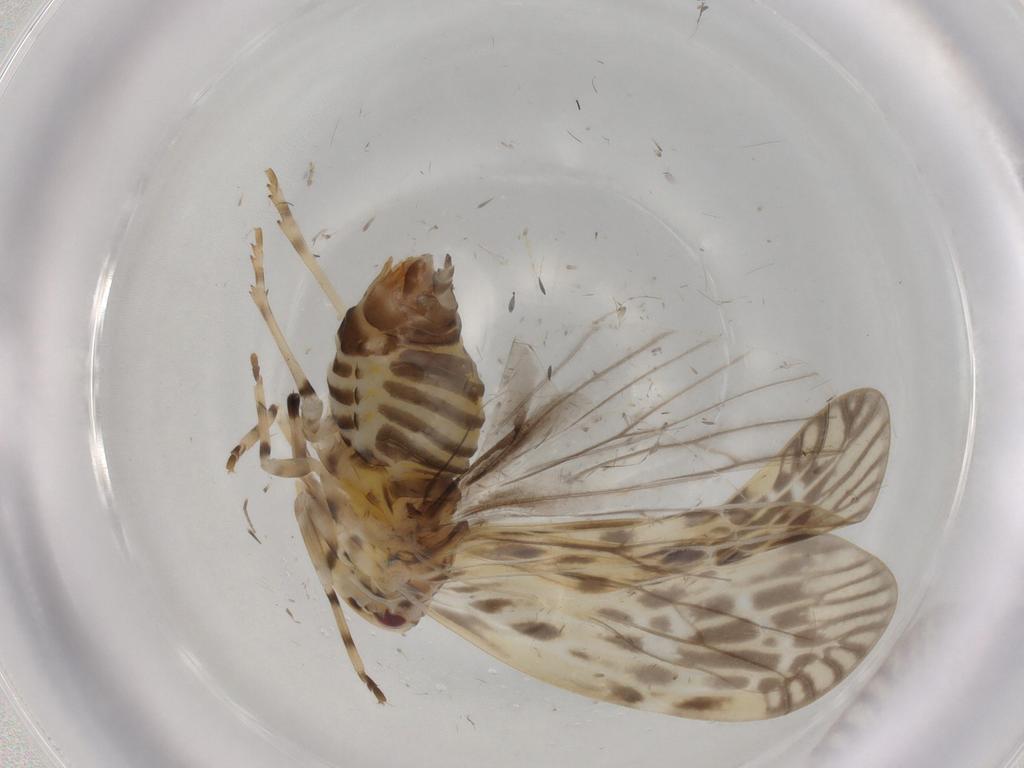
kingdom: Animalia
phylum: Arthropoda
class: Insecta
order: Hemiptera
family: Derbidae
